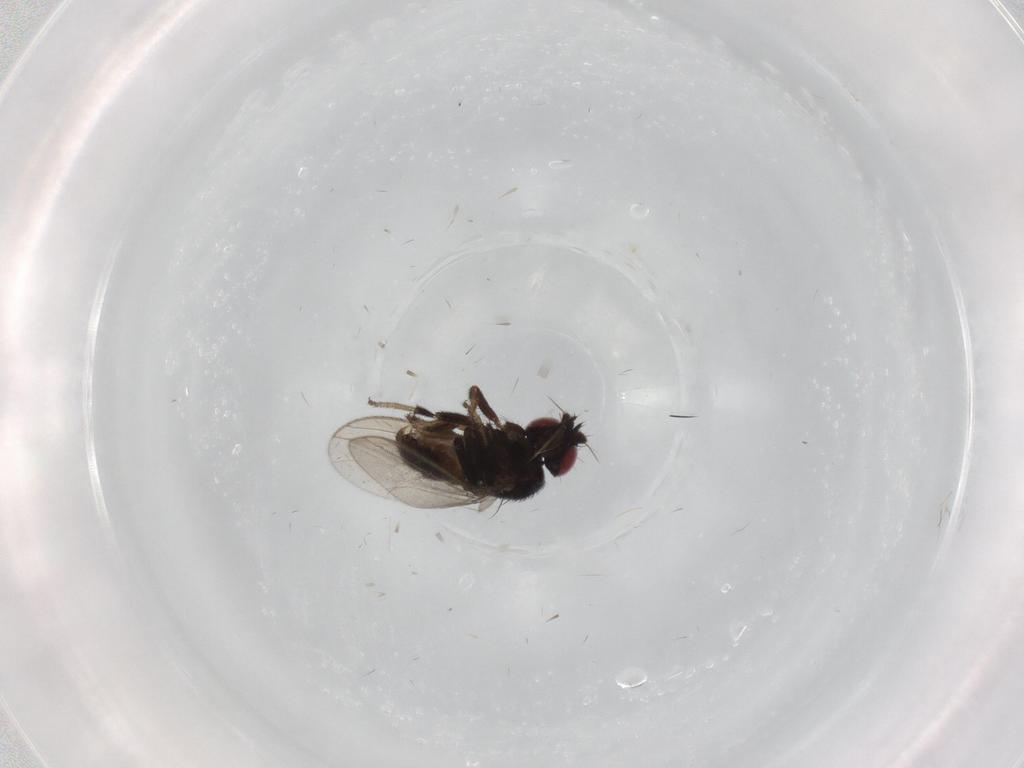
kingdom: Animalia
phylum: Arthropoda
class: Insecta
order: Diptera
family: Milichiidae
